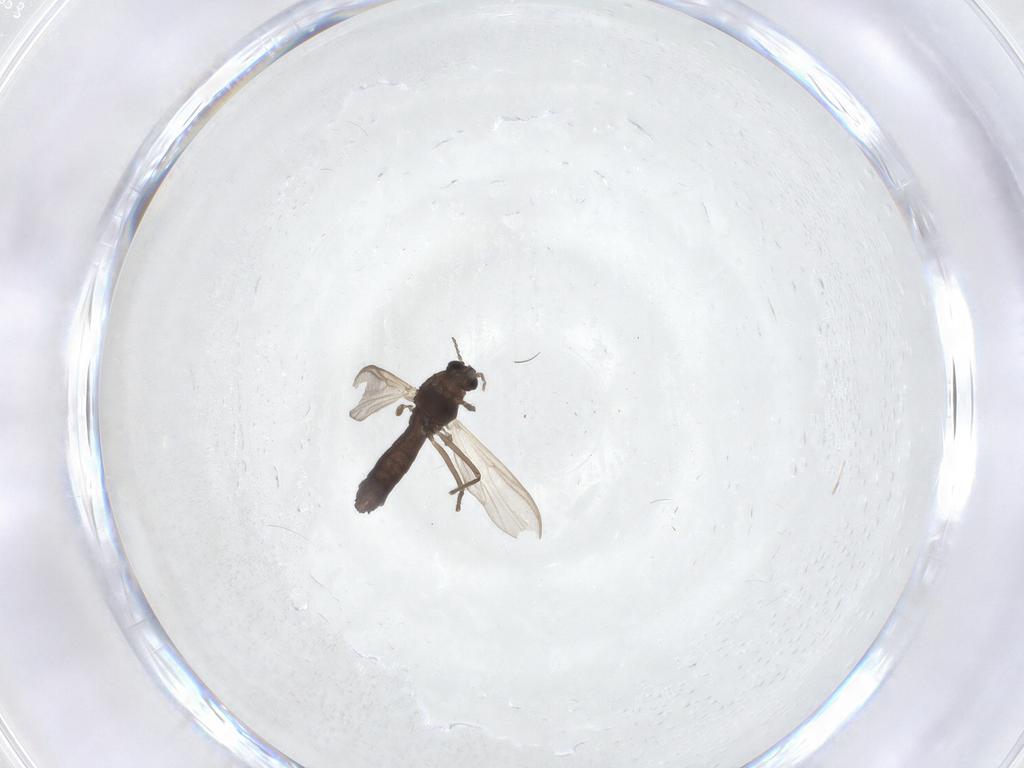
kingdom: Animalia
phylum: Arthropoda
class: Insecta
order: Diptera
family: Chironomidae
